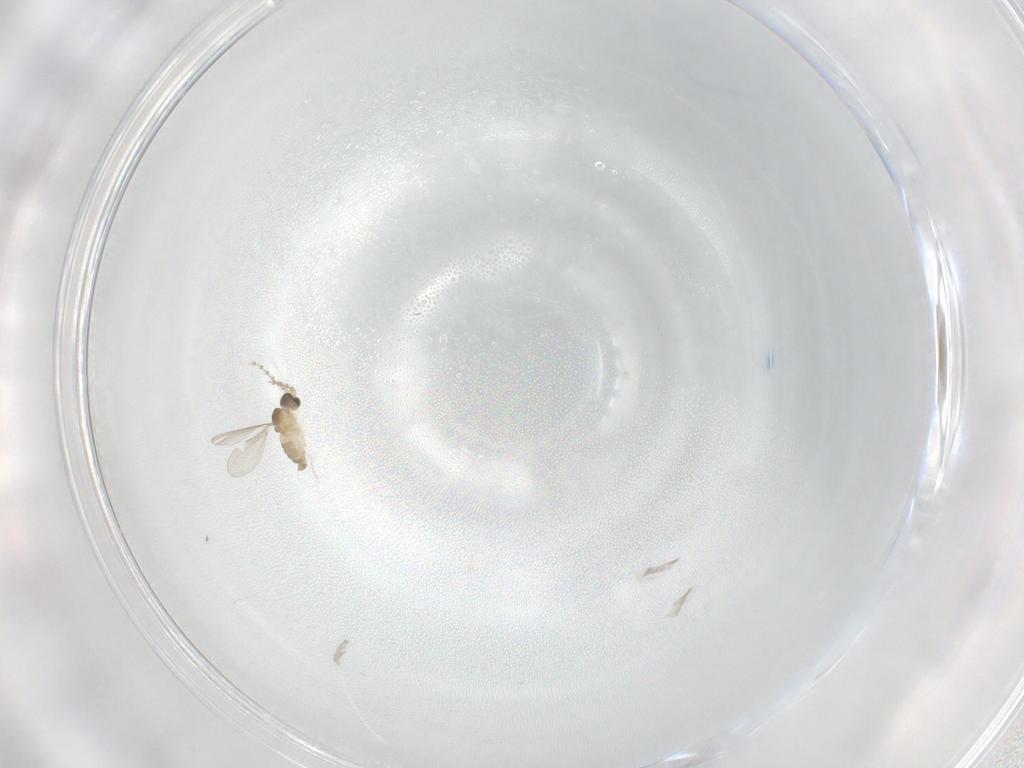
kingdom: Animalia
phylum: Arthropoda
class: Insecta
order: Diptera
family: Cecidomyiidae
